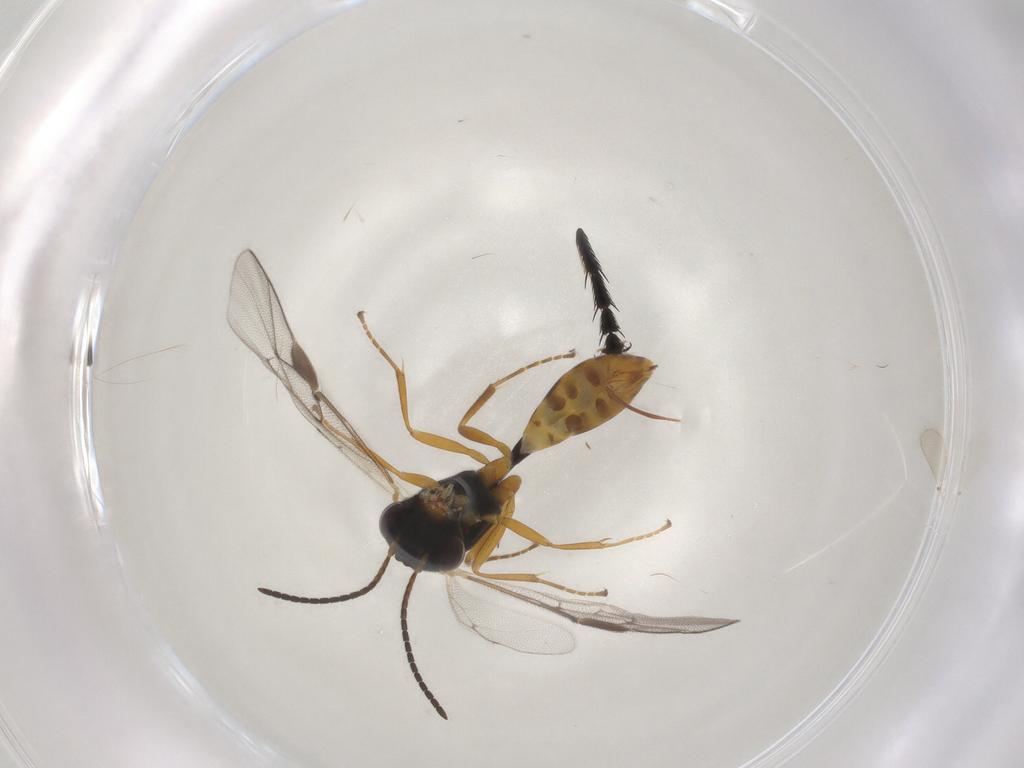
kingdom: Animalia
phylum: Arthropoda
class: Insecta
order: Hymenoptera
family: Ichneumonidae
